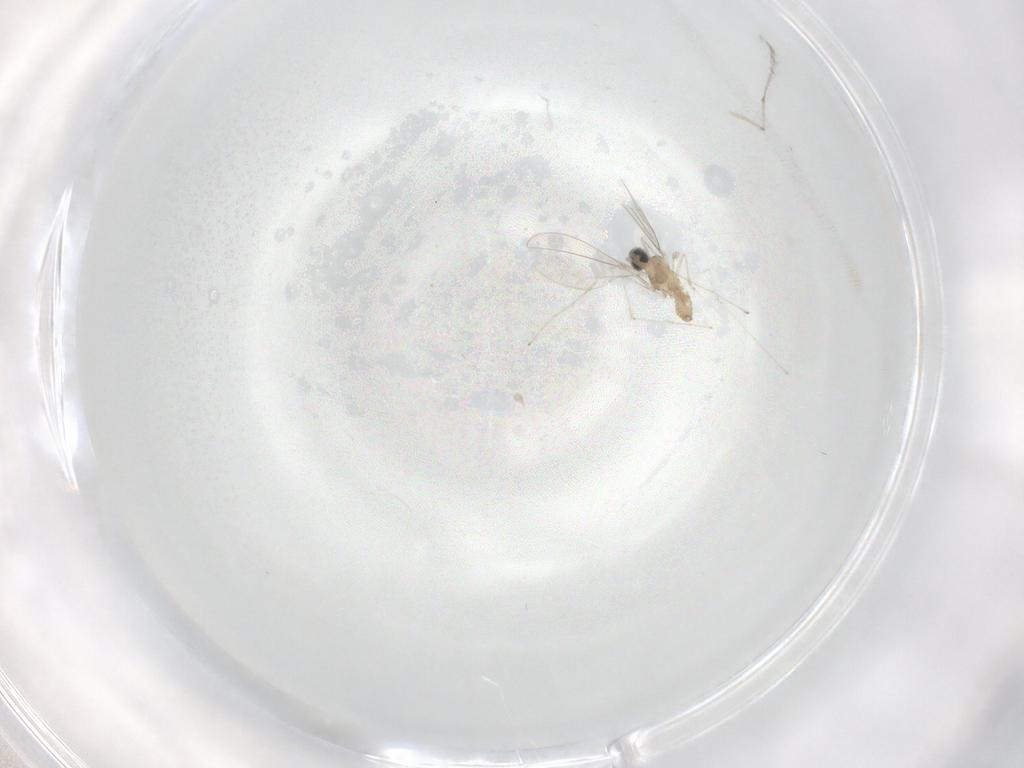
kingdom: Animalia
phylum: Arthropoda
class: Insecta
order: Diptera
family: Cecidomyiidae
